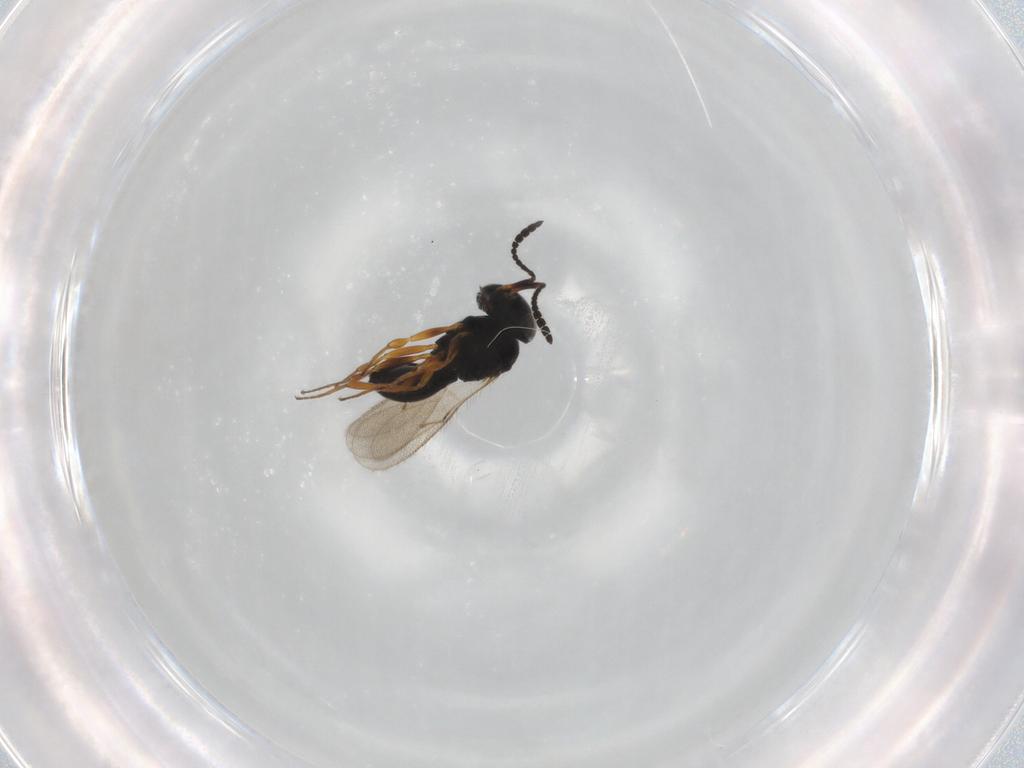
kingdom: Animalia
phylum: Arthropoda
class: Insecta
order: Hymenoptera
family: Scelionidae
